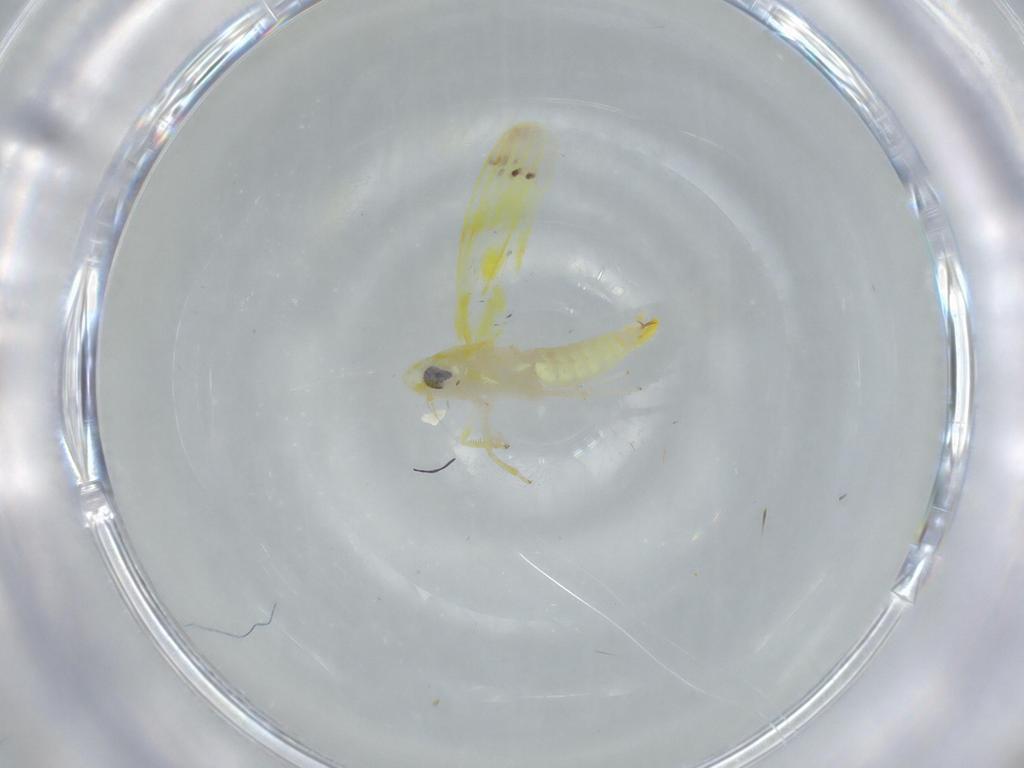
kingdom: Animalia
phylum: Arthropoda
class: Insecta
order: Hemiptera
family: Cicadellidae
